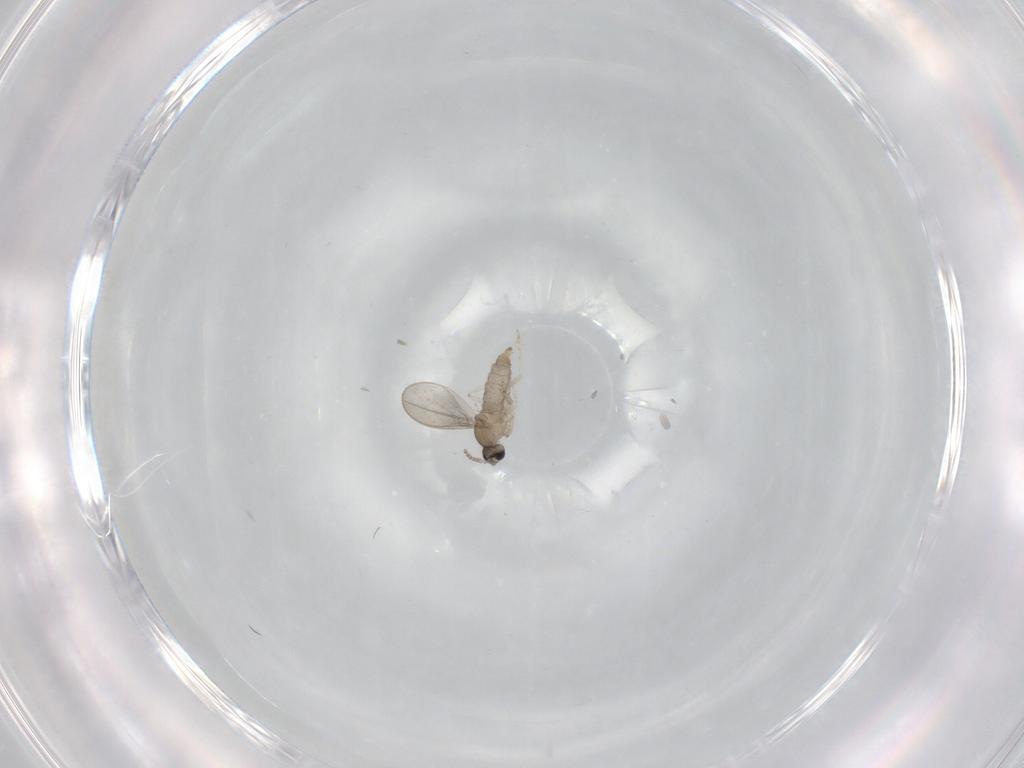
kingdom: Animalia
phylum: Arthropoda
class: Insecta
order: Diptera
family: Cecidomyiidae
